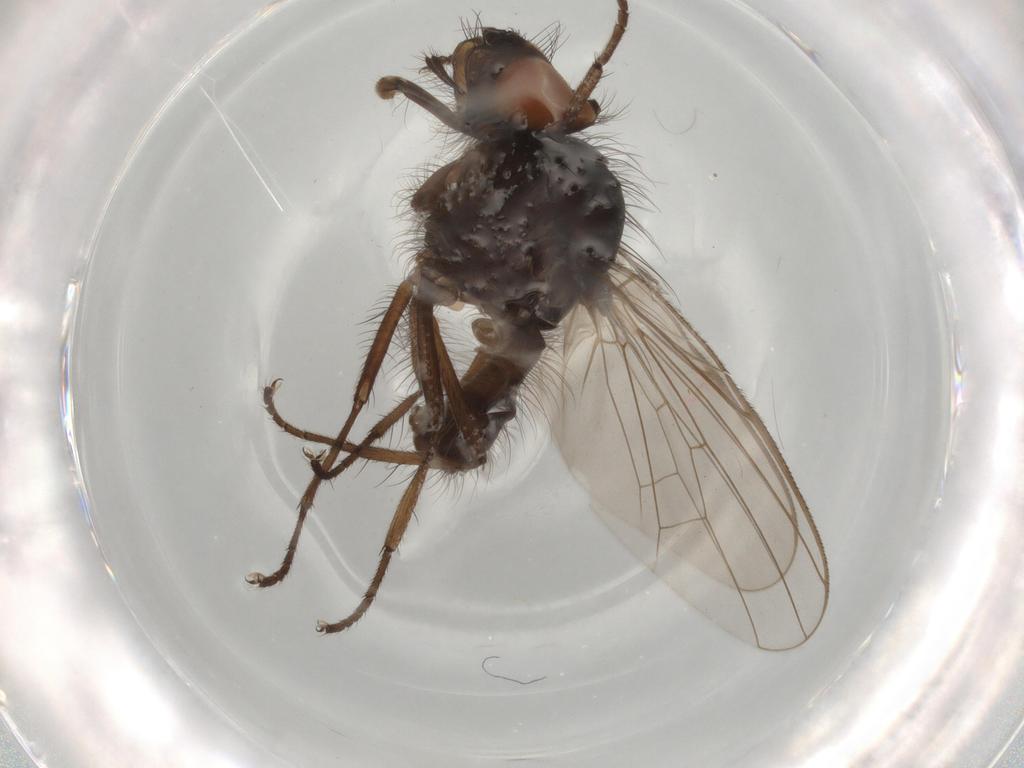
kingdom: Animalia
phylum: Arthropoda
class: Insecta
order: Diptera
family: Anthomyiidae
